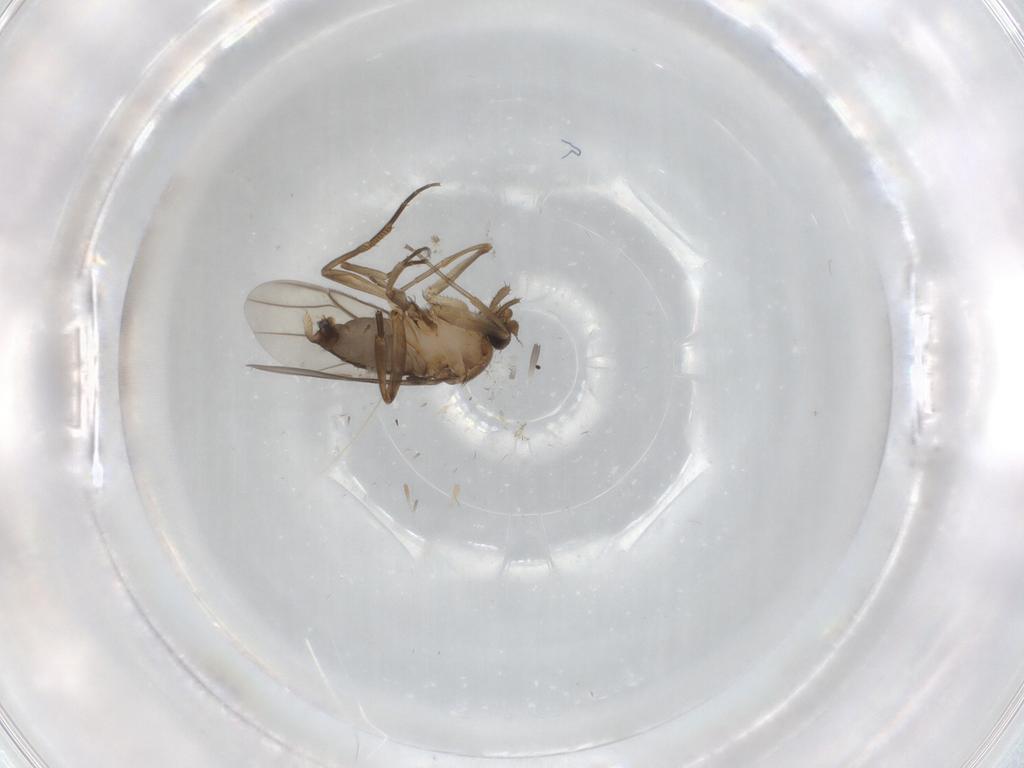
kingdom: Animalia
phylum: Arthropoda
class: Insecta
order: Diptera
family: Phoridae
